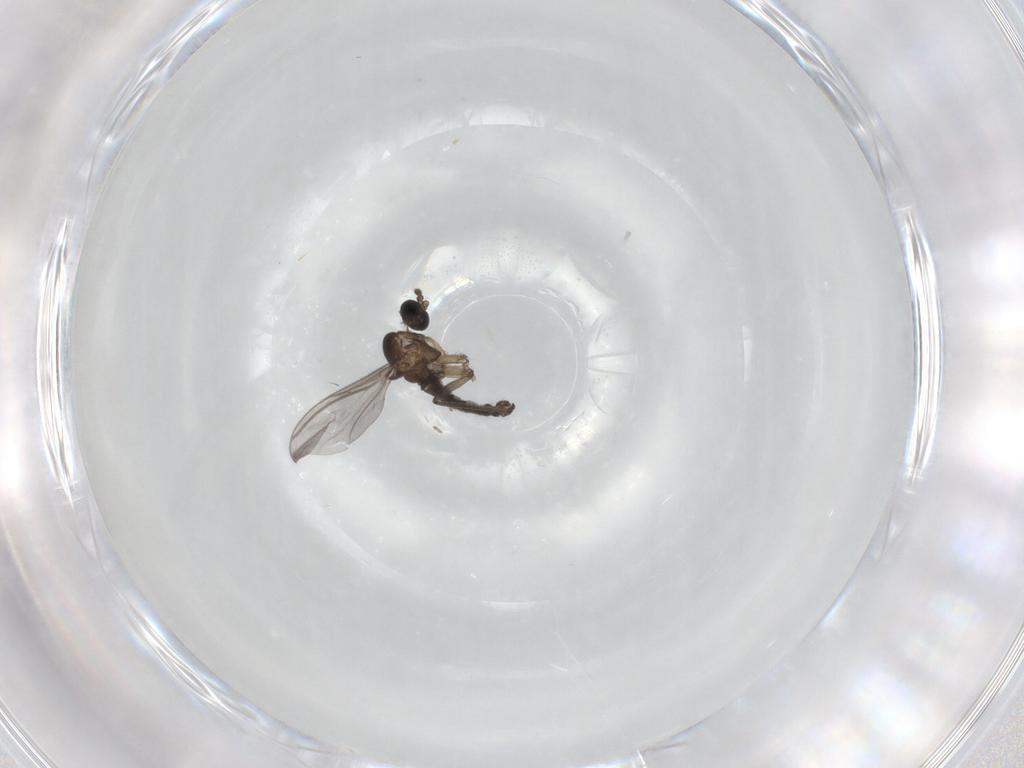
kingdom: Animalia
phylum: Arthropoda
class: Insecta
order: Diptera
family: Chironomidae
